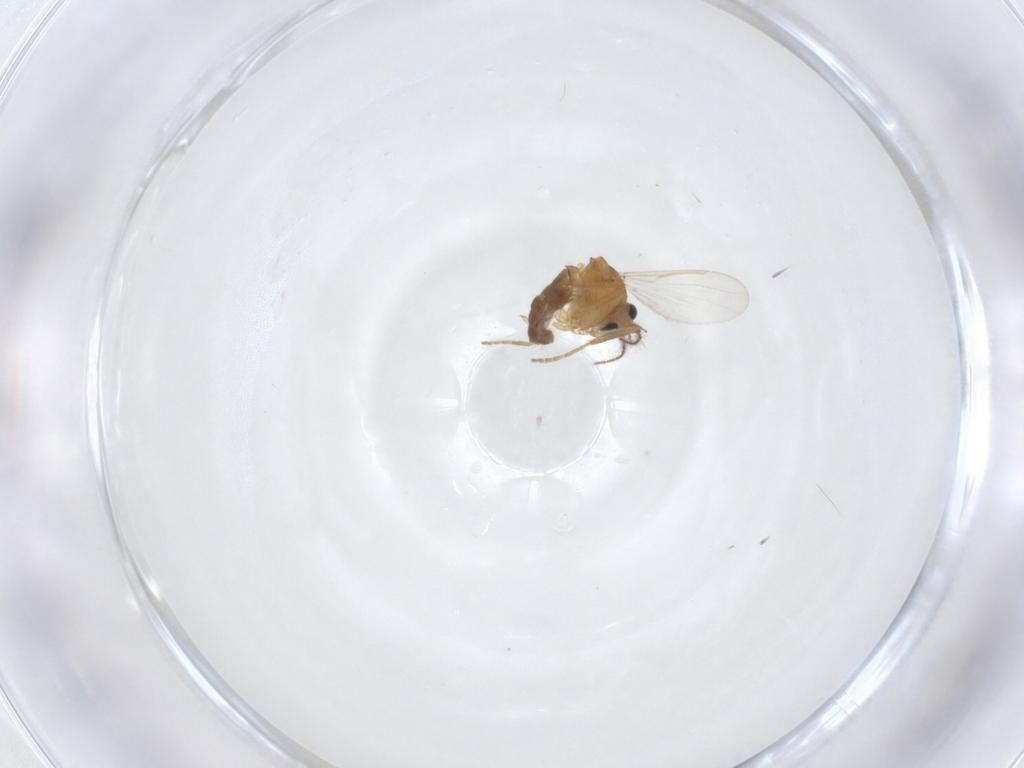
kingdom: Animalia
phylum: Arthropoda
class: Insecta
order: Diptera
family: Ceratopogonidae
